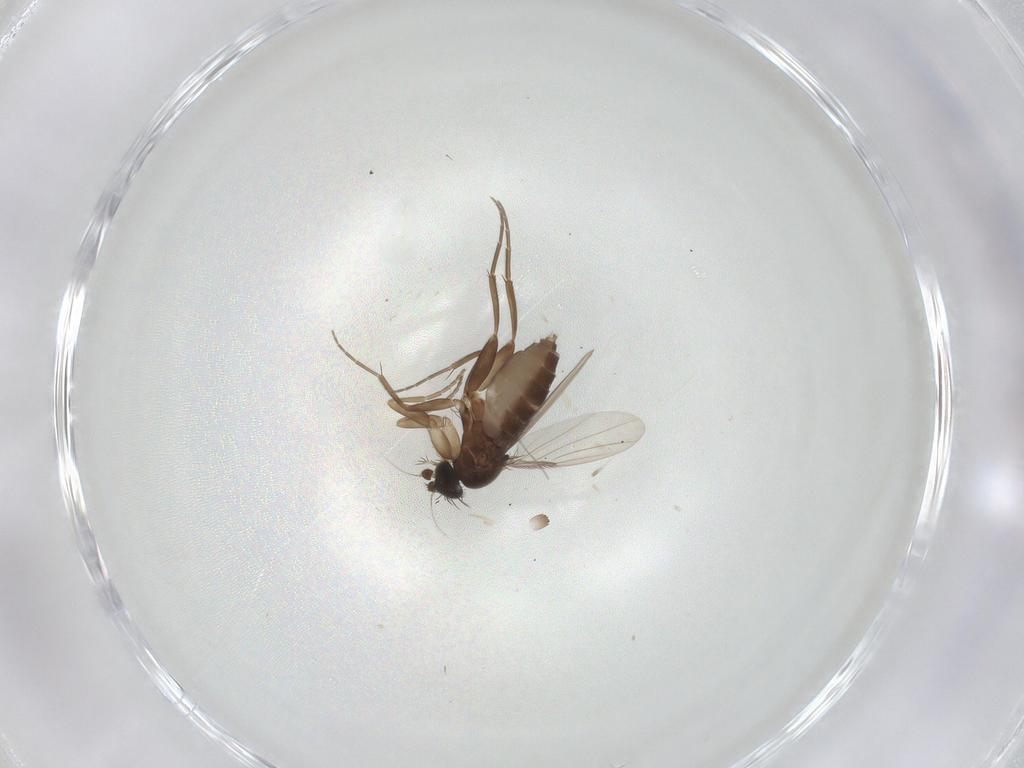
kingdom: Animalia
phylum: Arthropoda
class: Insecta
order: Diptera
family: Phoridae
